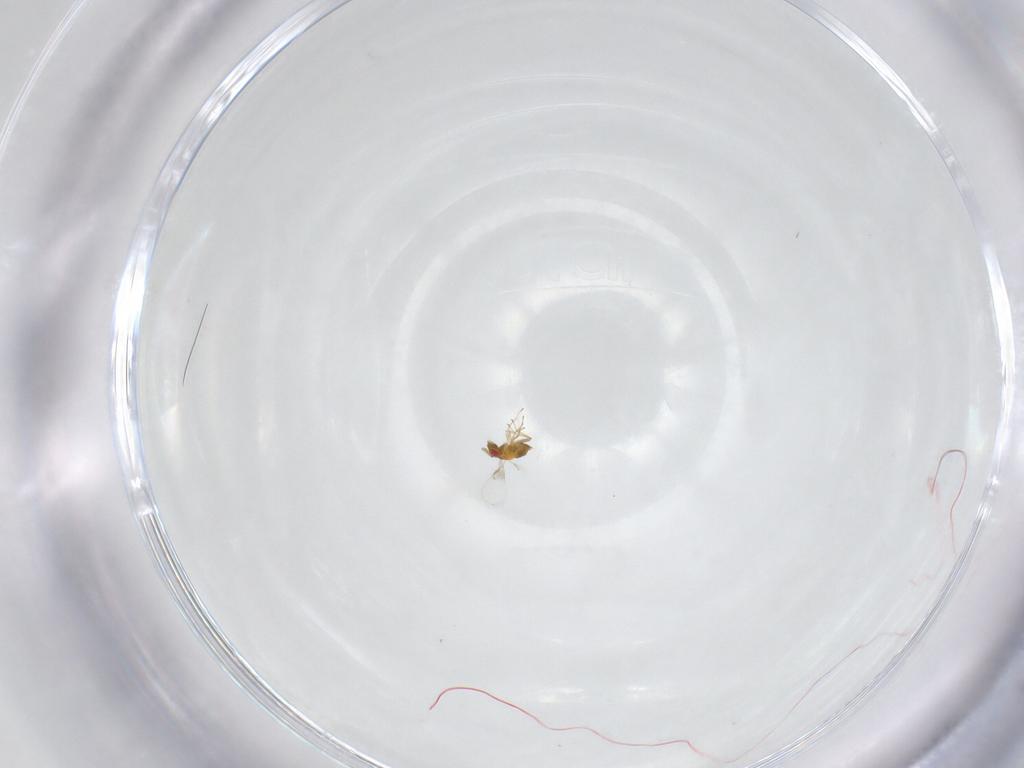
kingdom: Animalia
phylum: Arthropoda
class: Insecta
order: Hymenoptera
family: Trichogrammatidae
